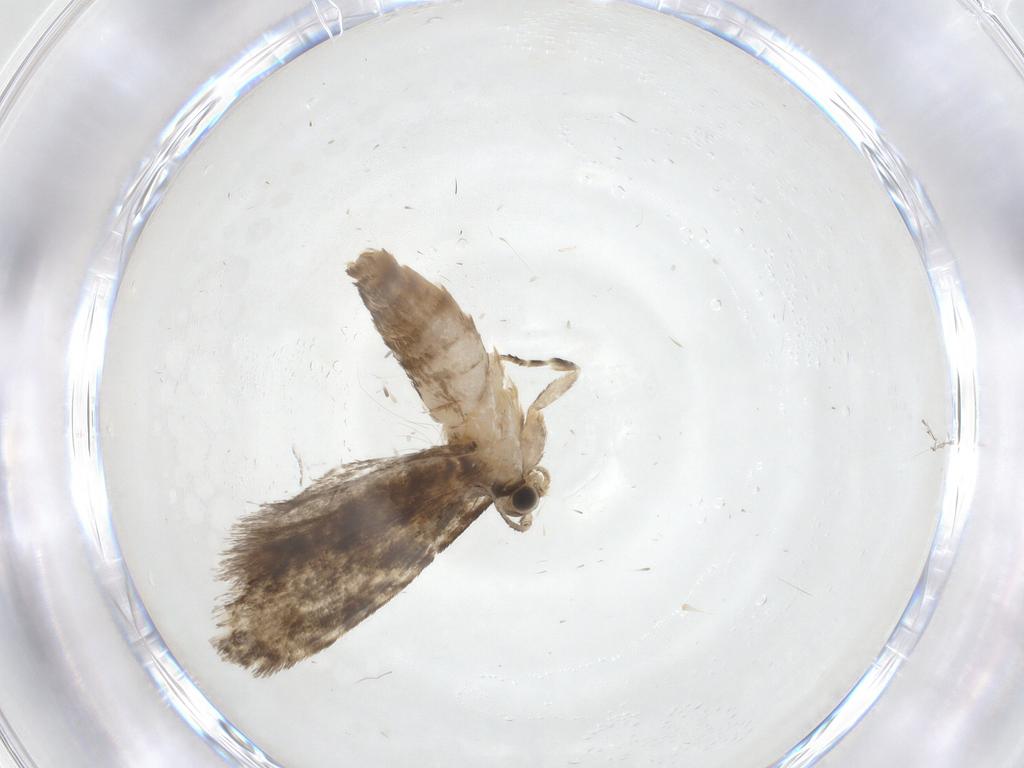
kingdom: Animalia
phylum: Arthropoda
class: Insecta
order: Lepidoptera
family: Tineidae
